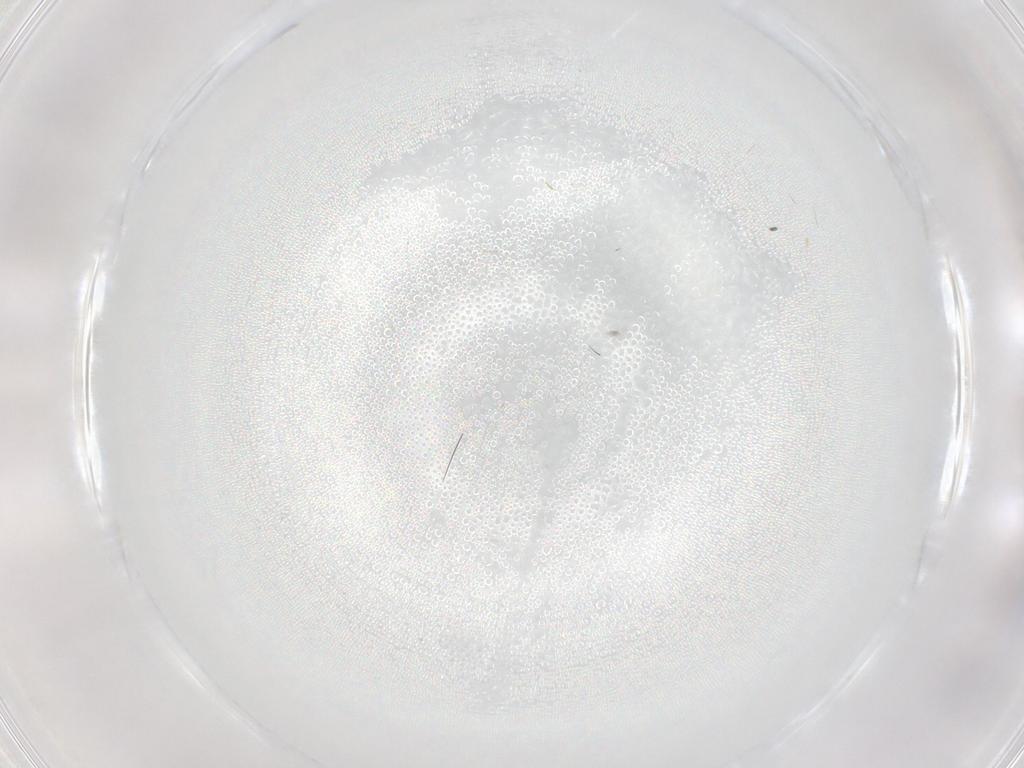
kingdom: Animalia
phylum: Arthropoda
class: Insecta
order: Diptera
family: Sciaridae
